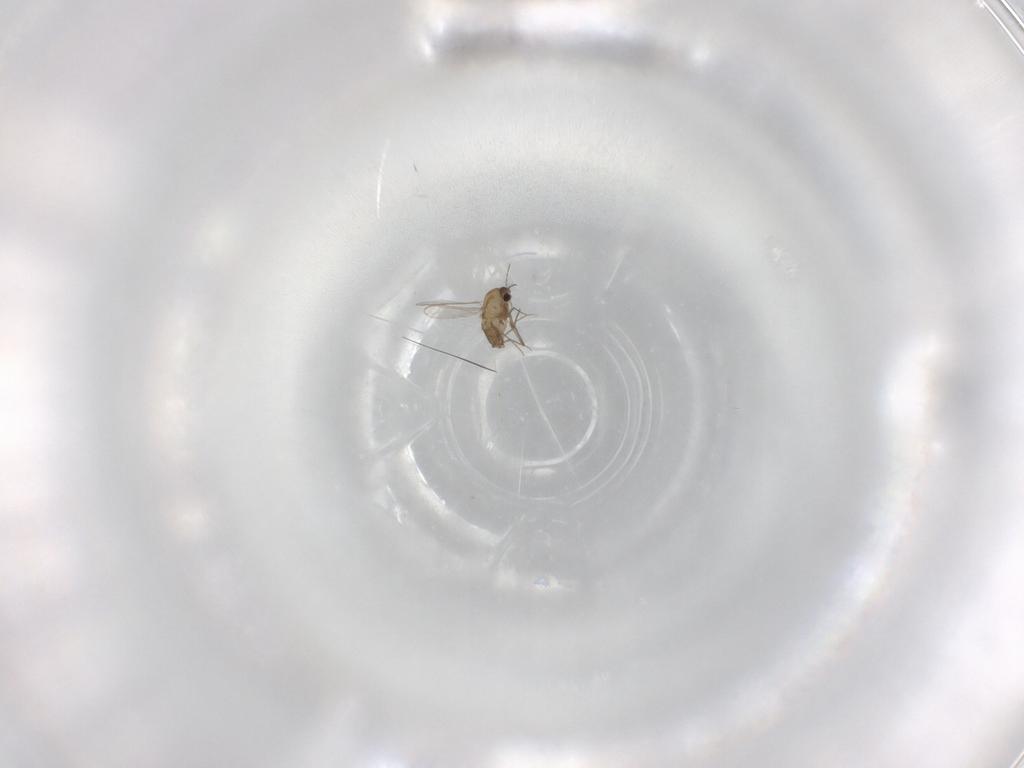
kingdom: Animalia
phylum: Arthropoda
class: Insecta
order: Diptera
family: Chironomidae
